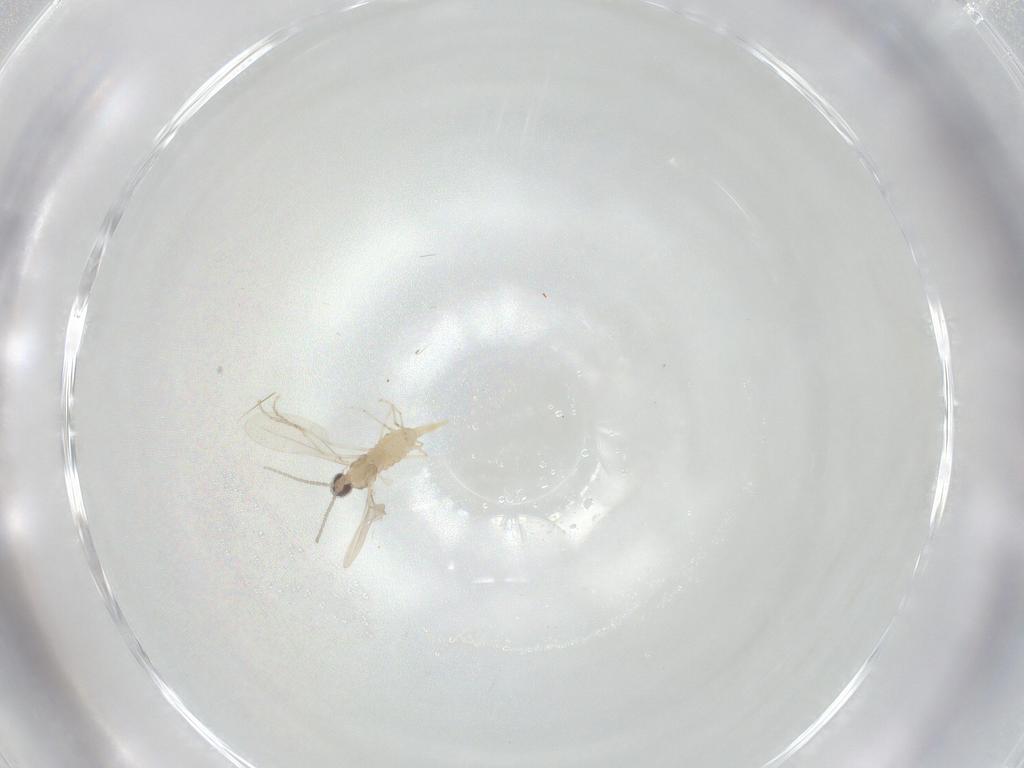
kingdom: Animalia
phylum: Arthropoda
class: Insecta
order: Diptera
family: Cecidomyiidae
